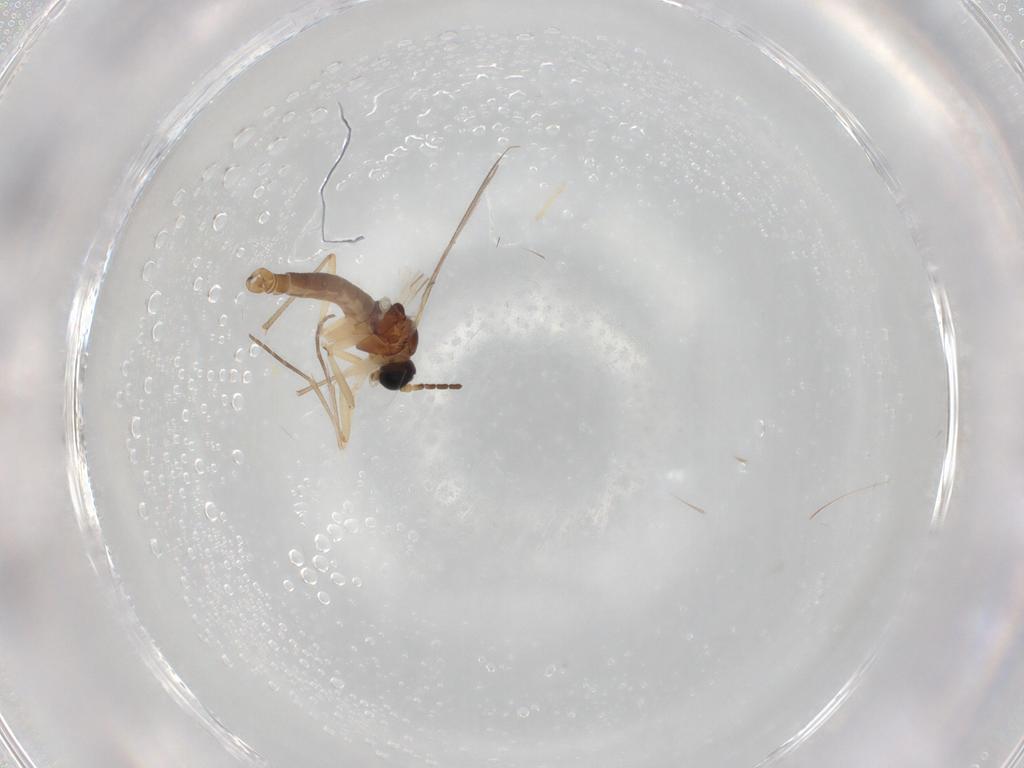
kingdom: Animalia
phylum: Arthropoda
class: Insecta
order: Diptera
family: Sciaridae
